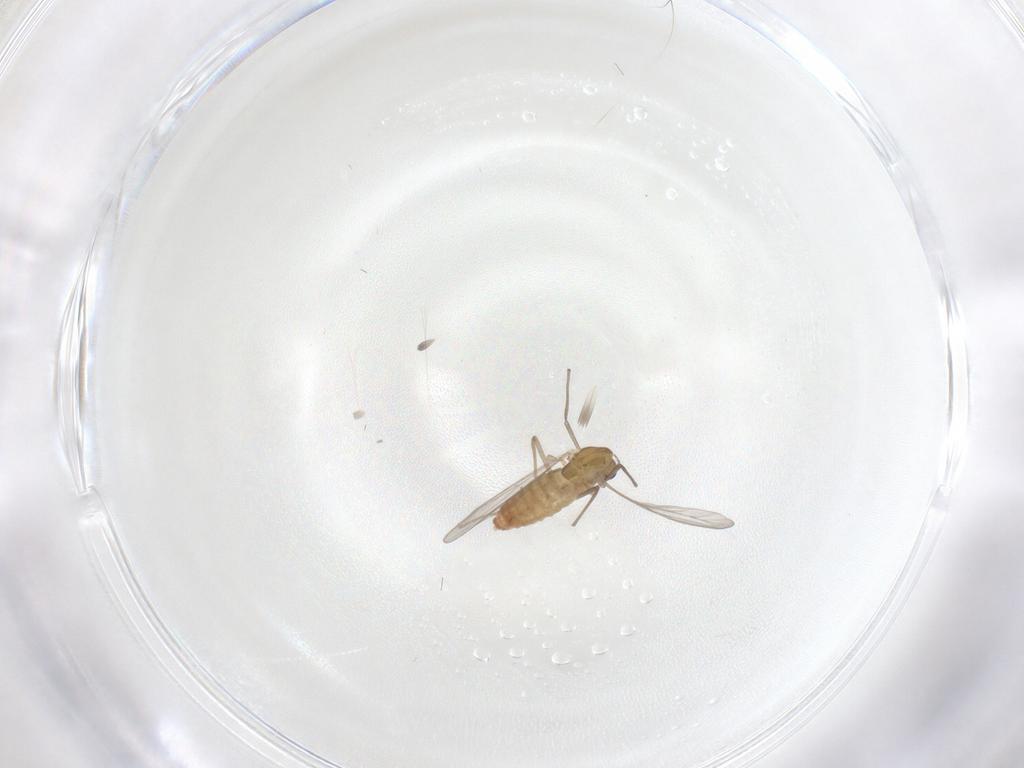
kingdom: Animalia
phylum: Arthropoda
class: Insecta
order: Diptera
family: Chironomidae
